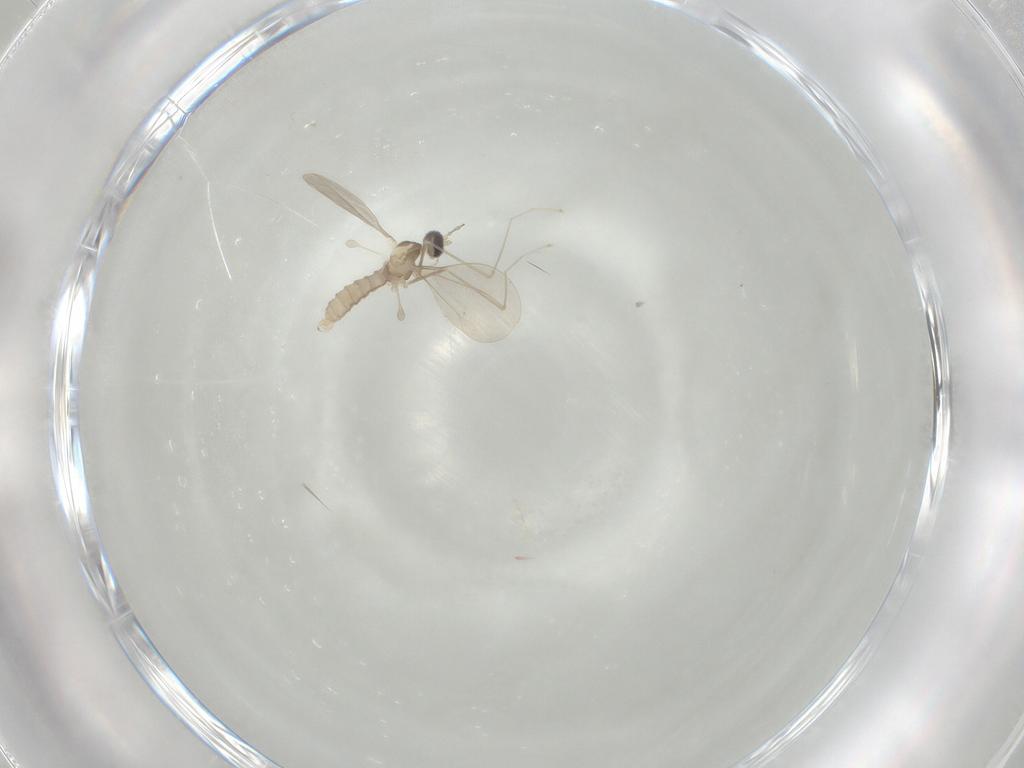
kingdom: Animalia
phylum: Arthropoda
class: Insecta
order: Diptera
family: Cecidomyiidae
